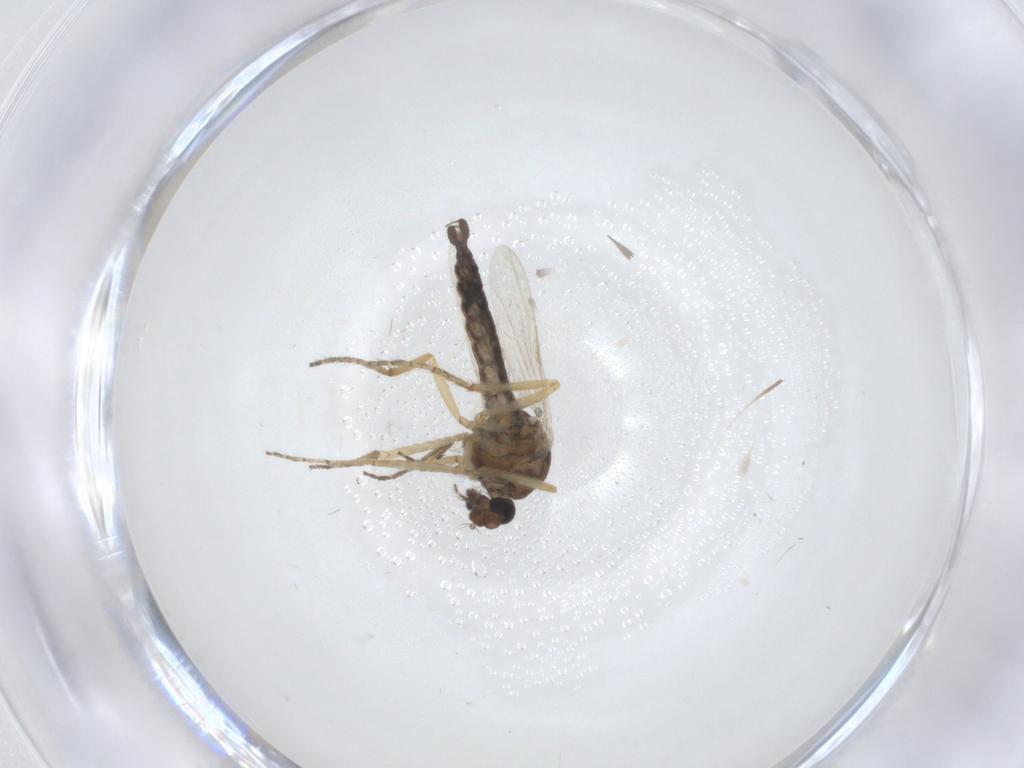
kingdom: Animalia
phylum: Arthropoda
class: Insecta
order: Diptera
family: Ceratopogonidae
